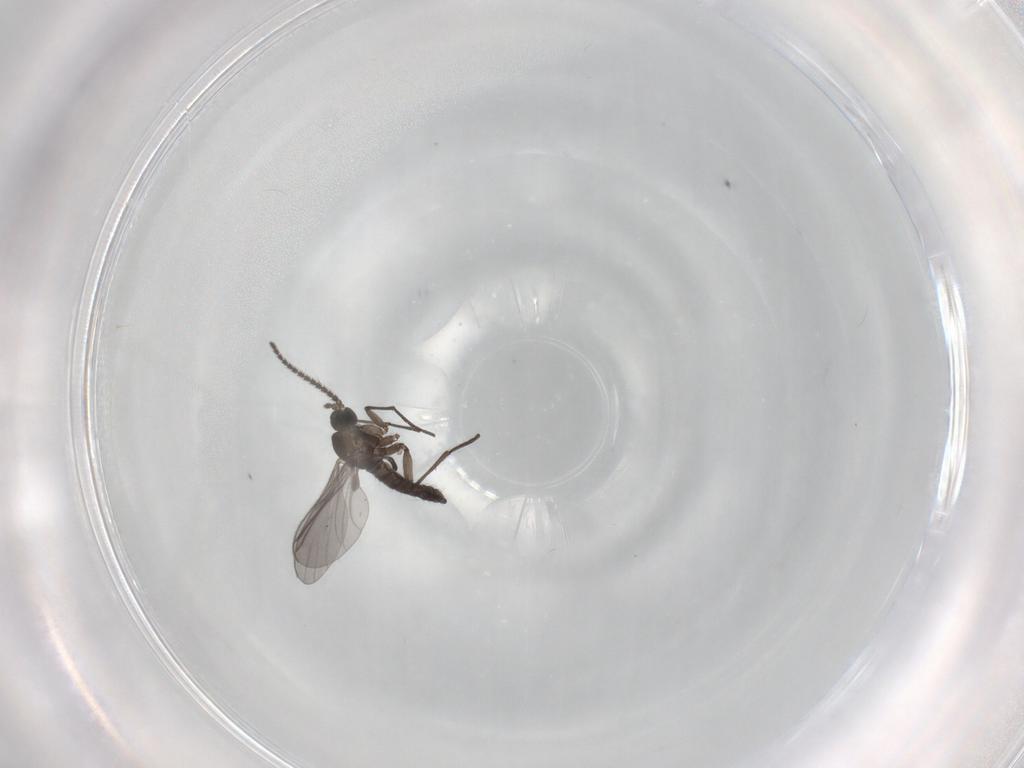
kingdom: Animalia
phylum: Arthropoda
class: Insecta
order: Diptera
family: Chironomidae
